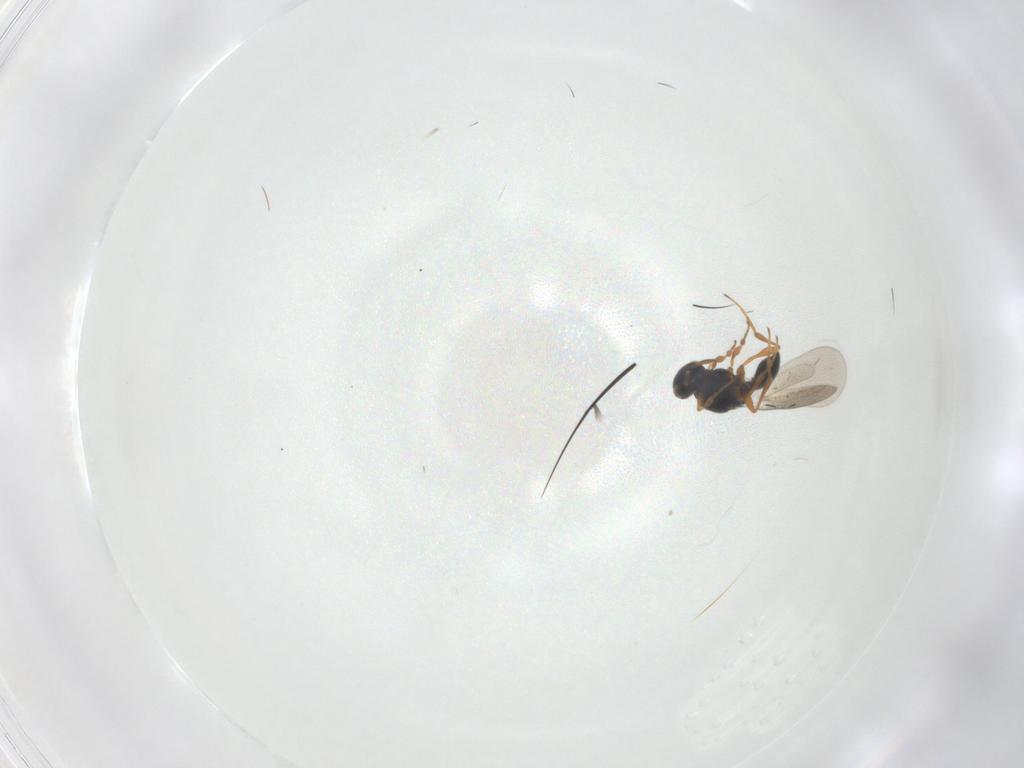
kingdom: Animalia
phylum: Arthropoda
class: Insecta
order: Hymenoptera
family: Platygastridae
